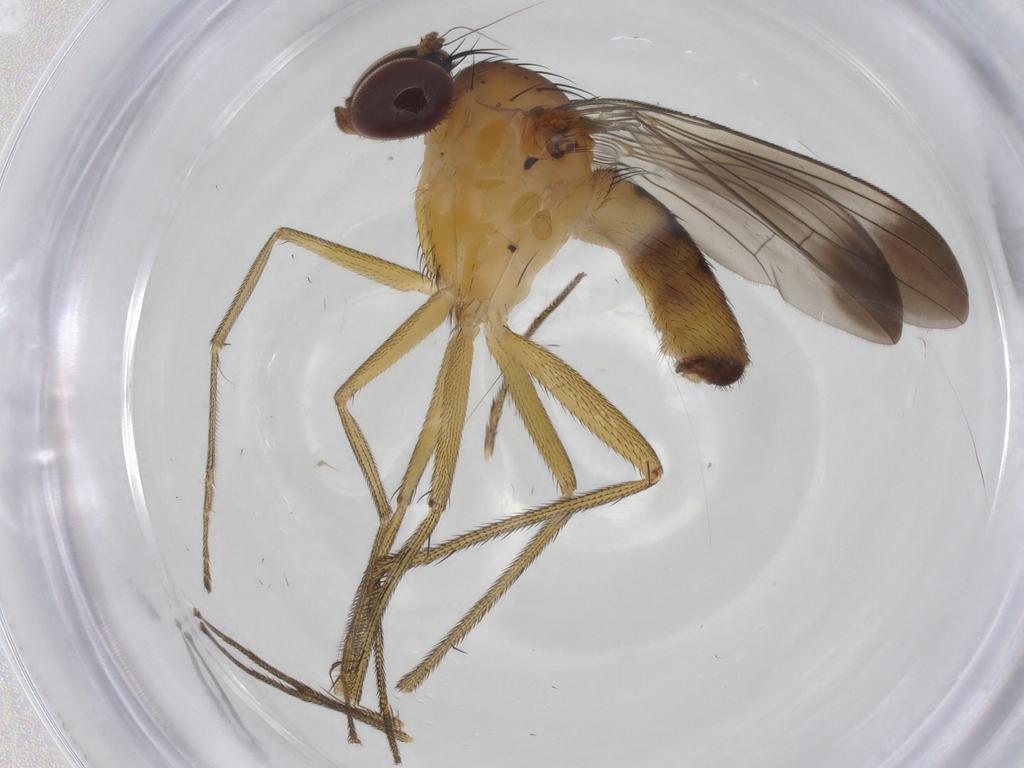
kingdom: Animalia
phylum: Arthropoda
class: Insecta
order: Diptera
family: Dolichopodidae
